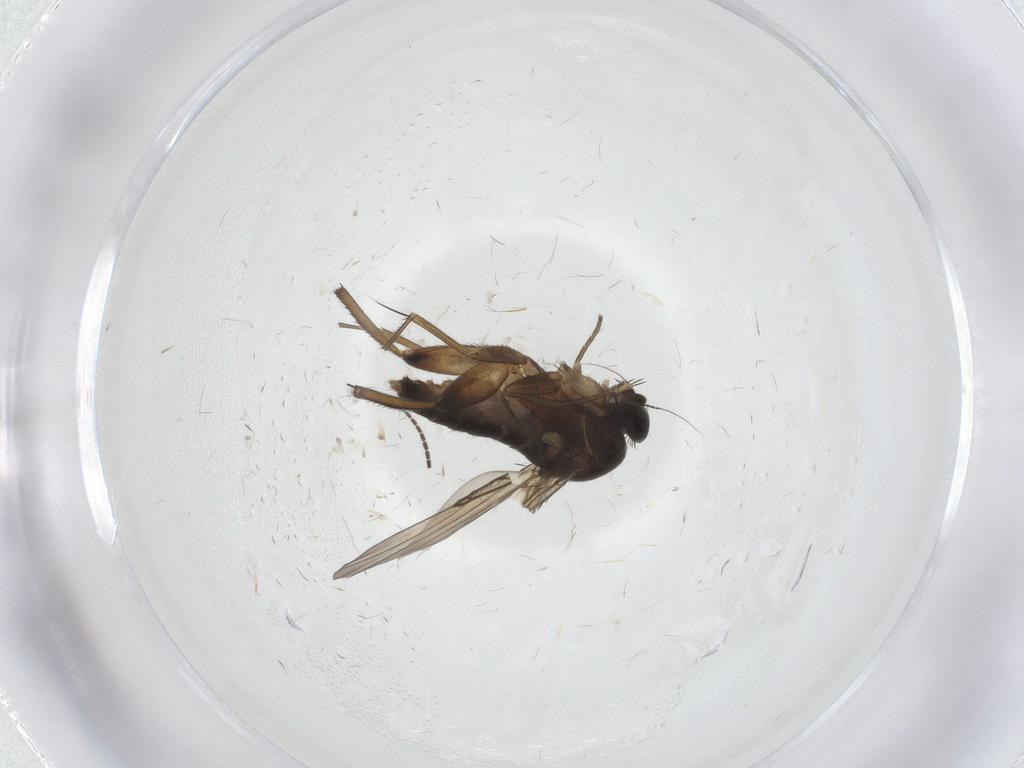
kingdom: Animalia
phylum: Arthropoda
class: Insecta
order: Diptera
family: Phoridae
